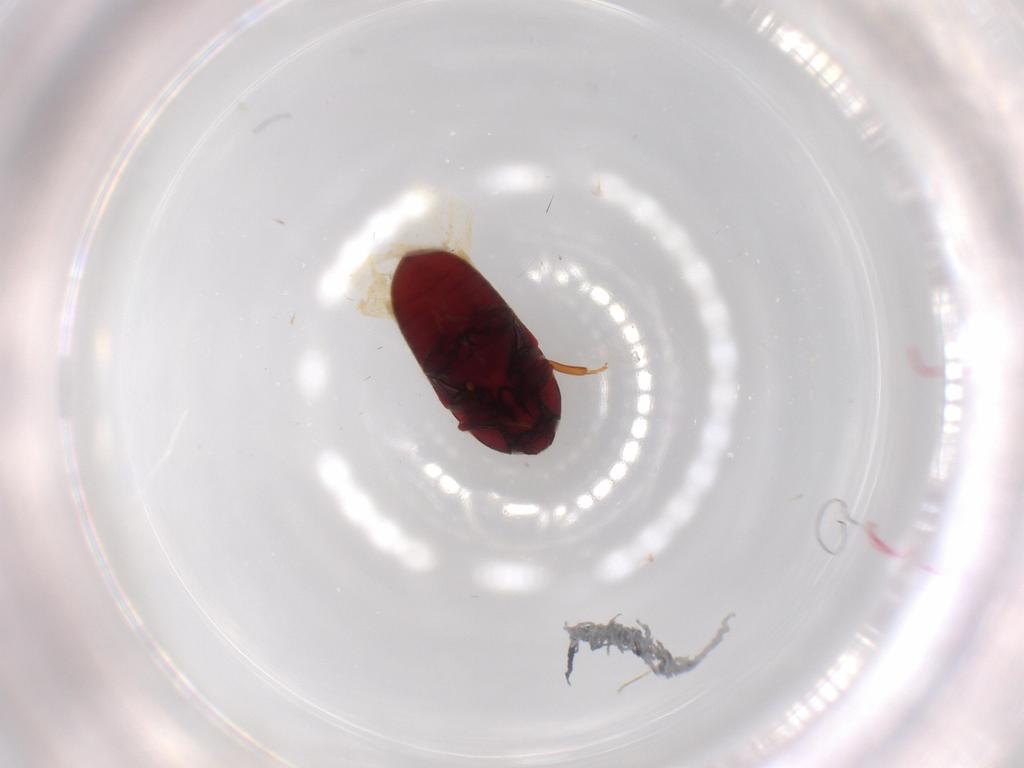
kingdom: Animalia
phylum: Arthropoda
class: Insecta
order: Coleoptera
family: Throscidae
